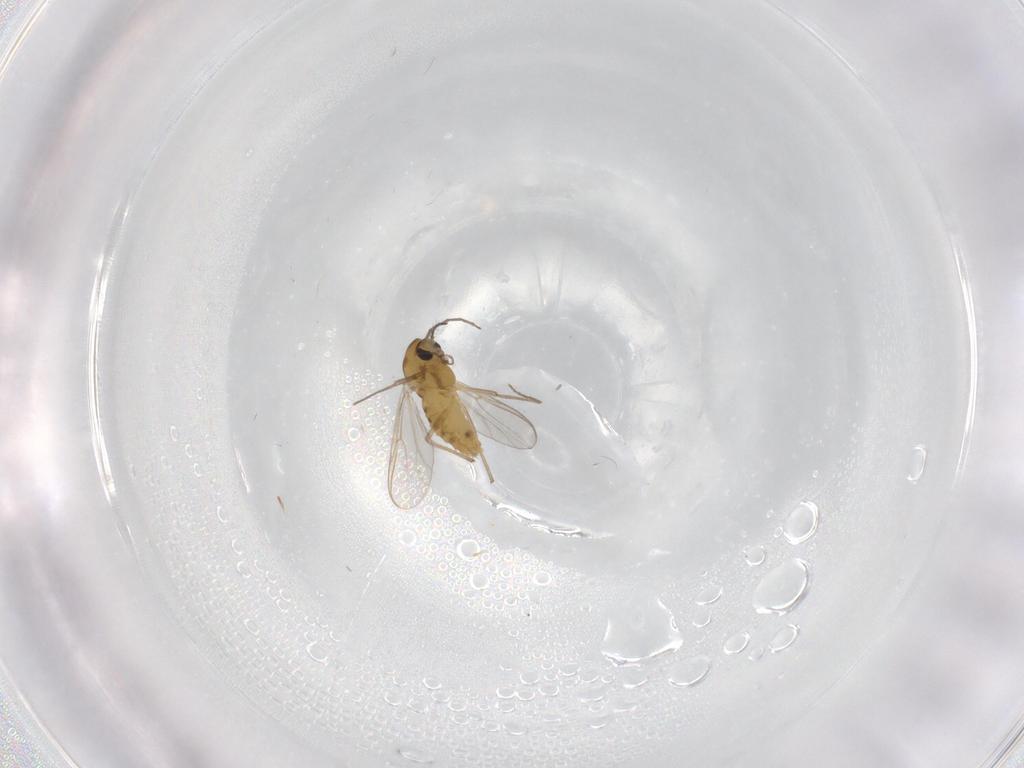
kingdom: Animalia
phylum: Arthropoda
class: Insecta
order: Diptera
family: Chironomidae
